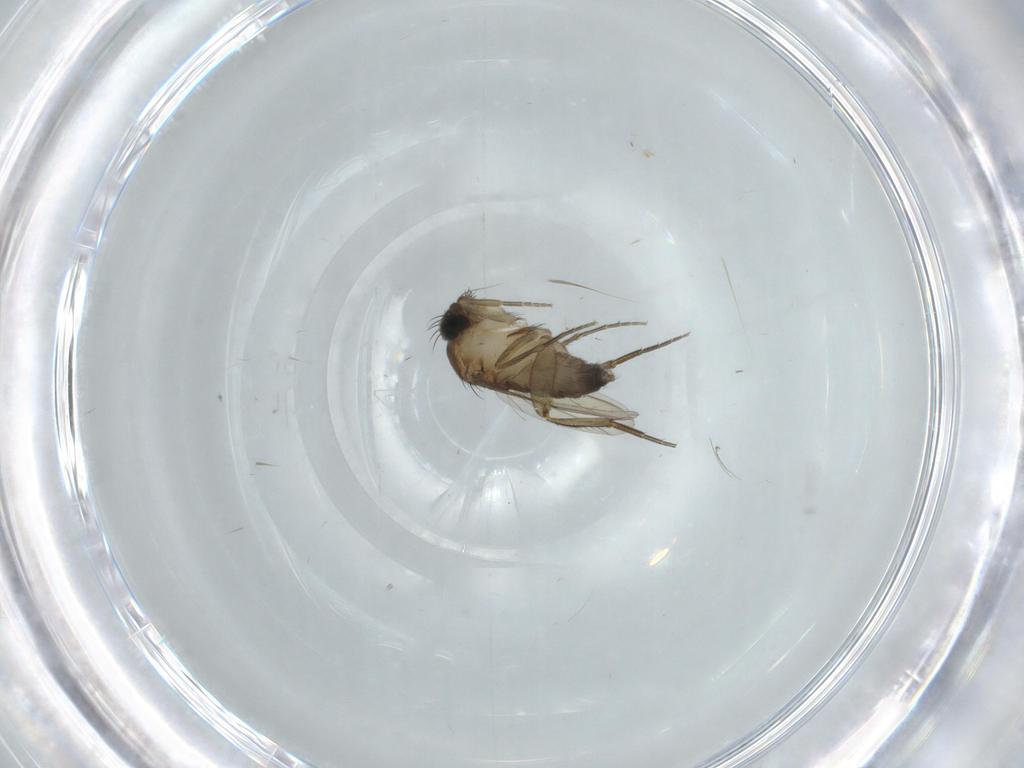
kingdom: Animalia
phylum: Arthropoda
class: Insecta
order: Diptera
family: Phoridae
